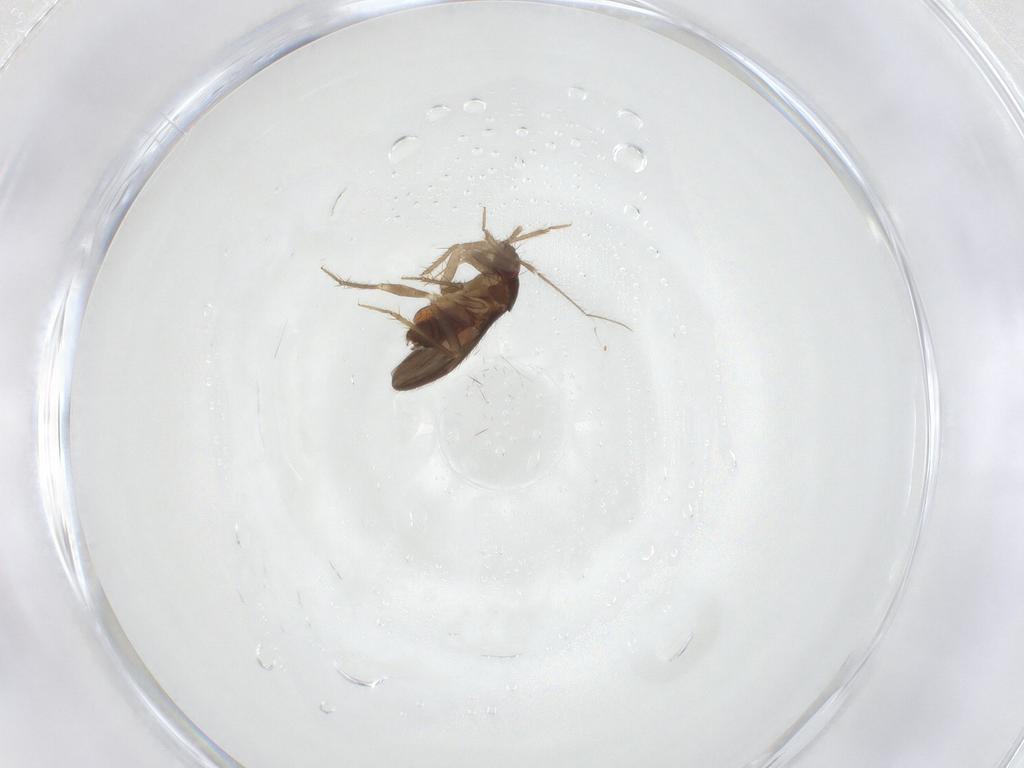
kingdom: Animalia
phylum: Arthropoda
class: Insecta
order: Hemiptera
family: Ceratocombidae
